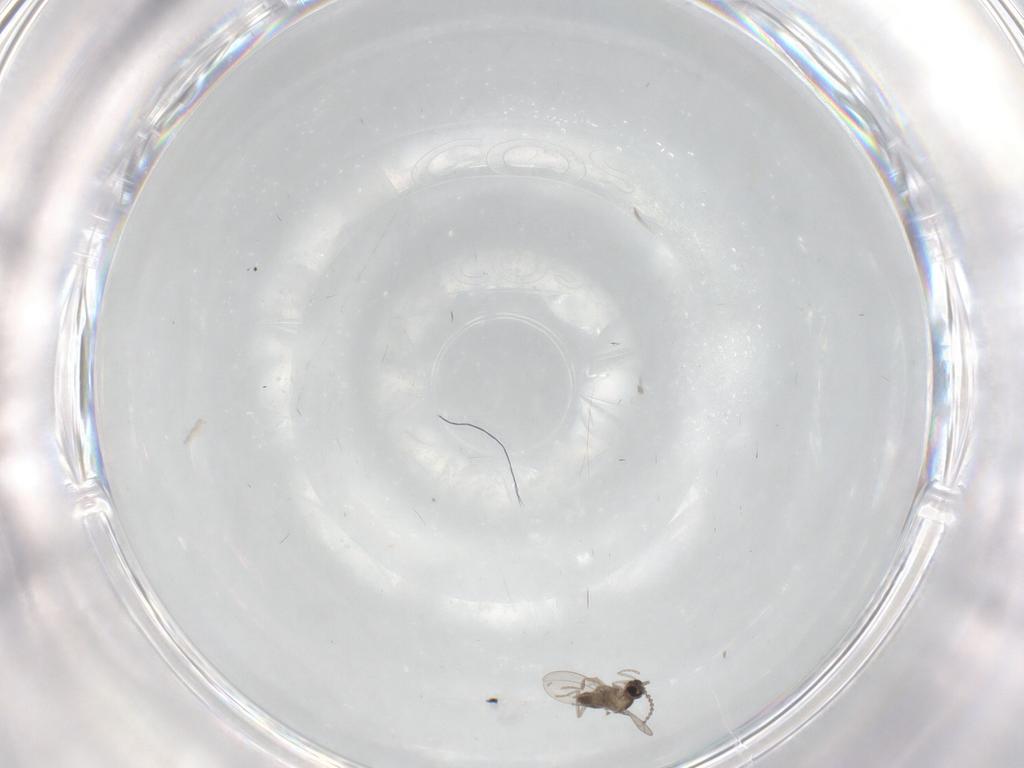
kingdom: Animalia
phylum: Arthropoda
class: Insecta
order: Diptera
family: Cecidomyiidae
